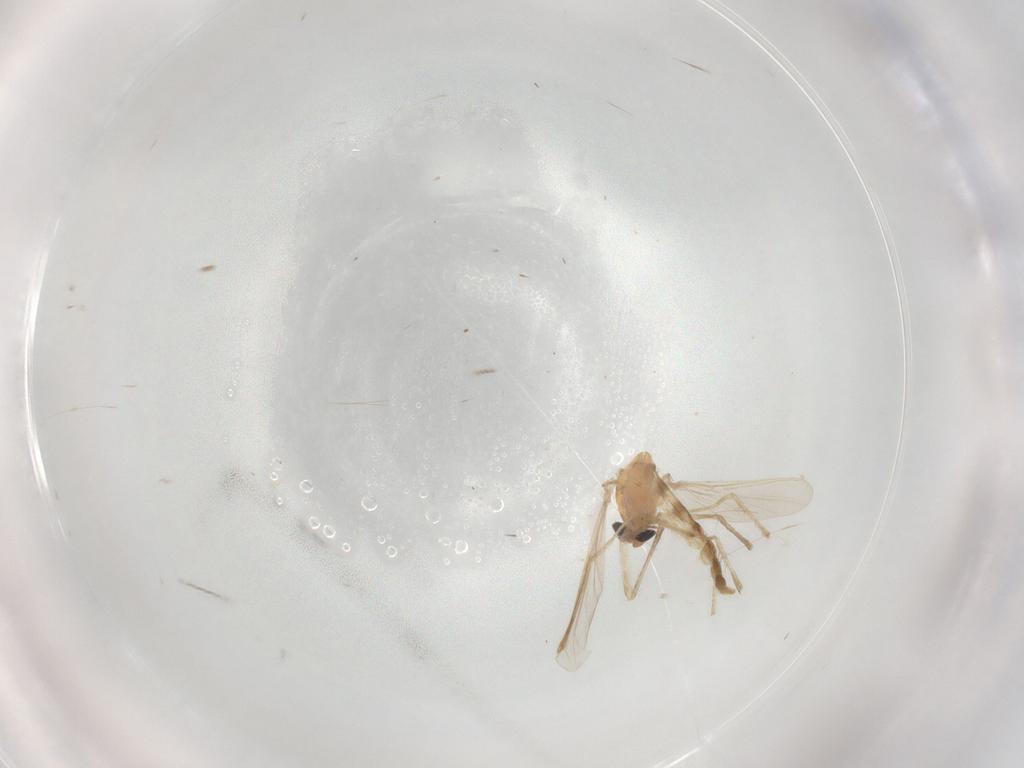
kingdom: Animalia
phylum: Arthropoda
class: Insecta
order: Diptera
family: Chironomidae
